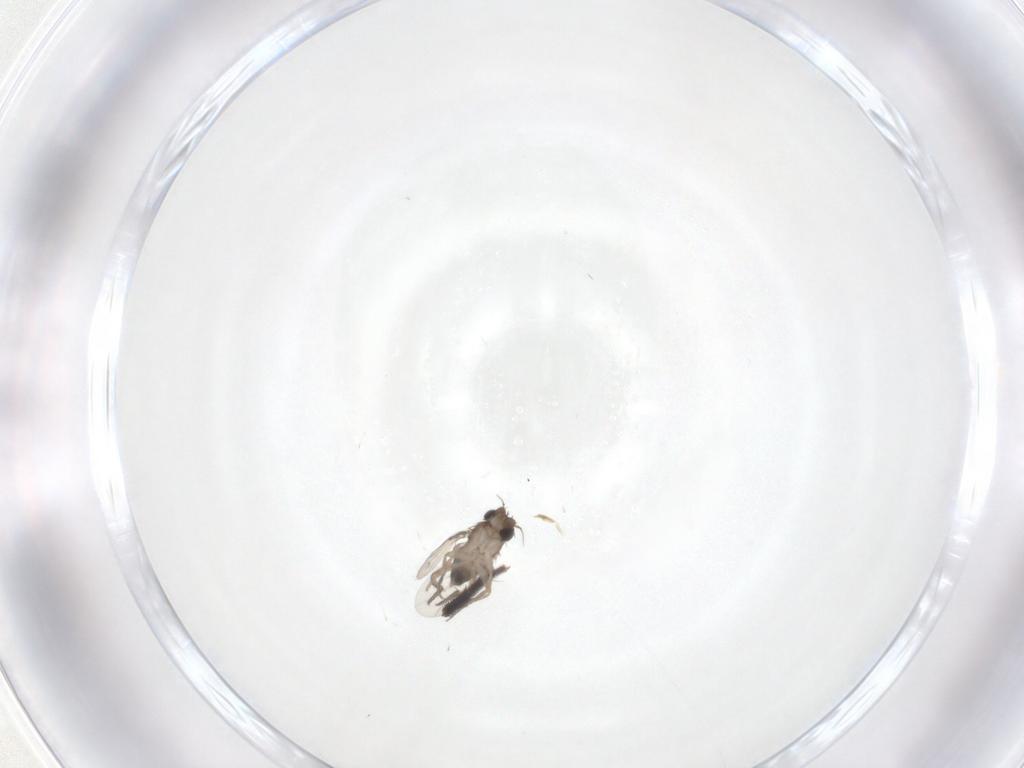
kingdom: Animalia
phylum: Arthropoda
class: Insecta
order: Diptera
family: Phoridae
